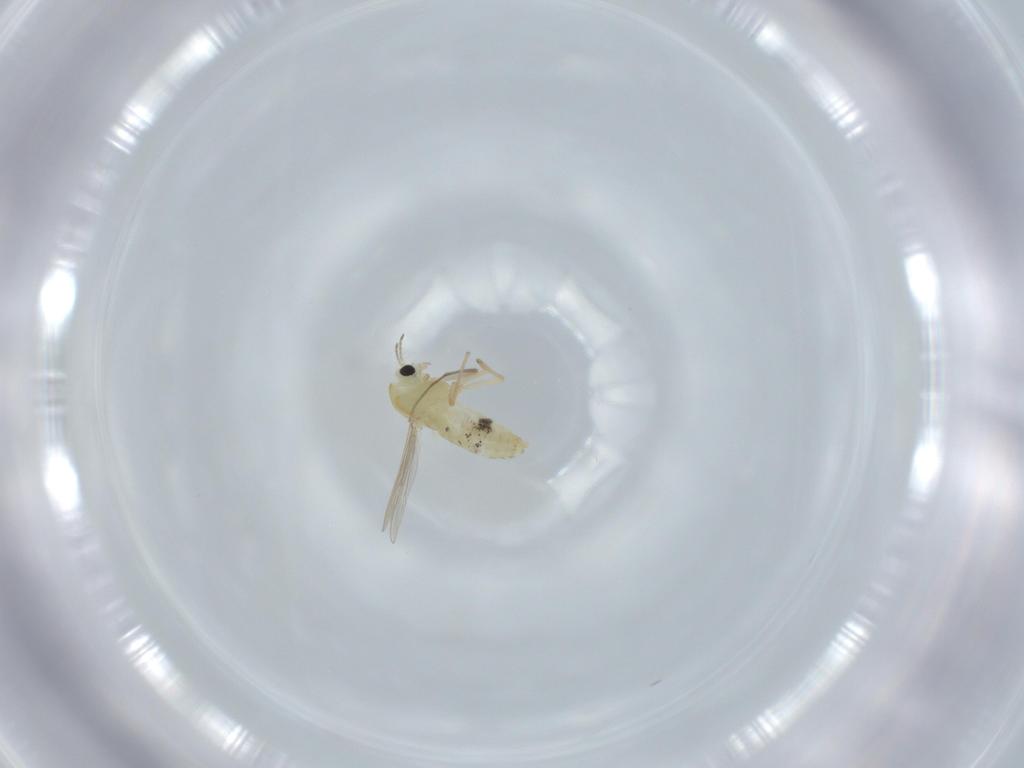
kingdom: Animalia
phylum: Arthropoda
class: Insecta
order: Diptera
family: Chironomidae
